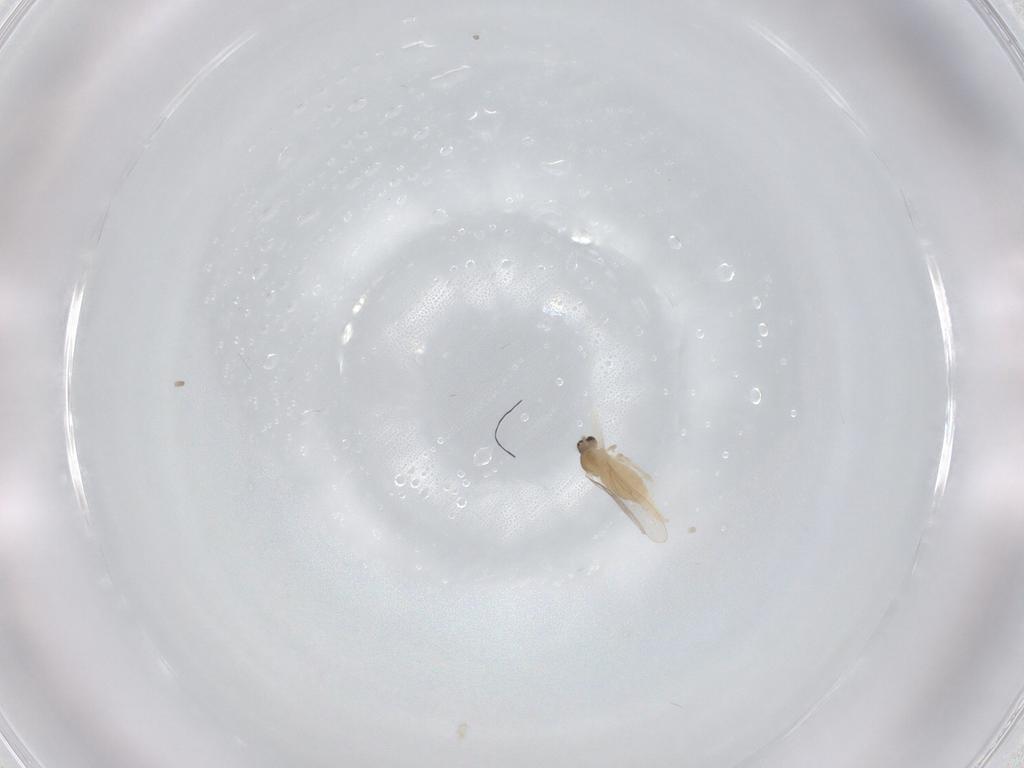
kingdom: Animalia
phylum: Arthropoda
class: Insecta
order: Diptera
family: Cecidomyiidae
